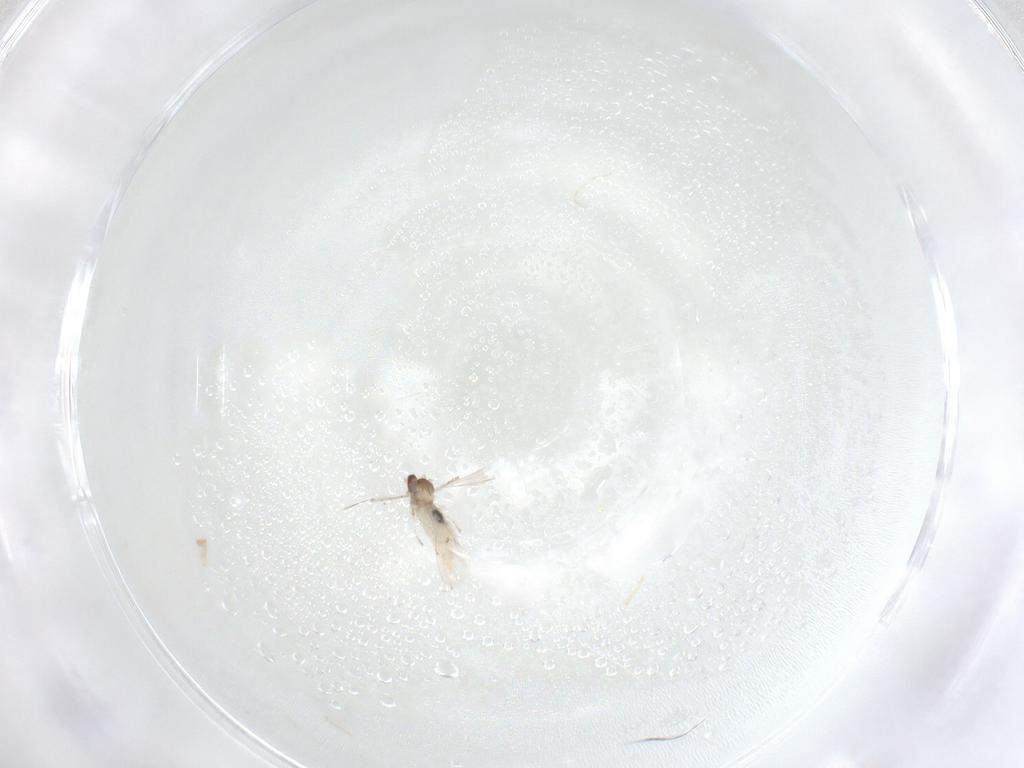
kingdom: Animalia
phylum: Arthropoda
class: Insecta
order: Diptera
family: Cecidomyiidae
